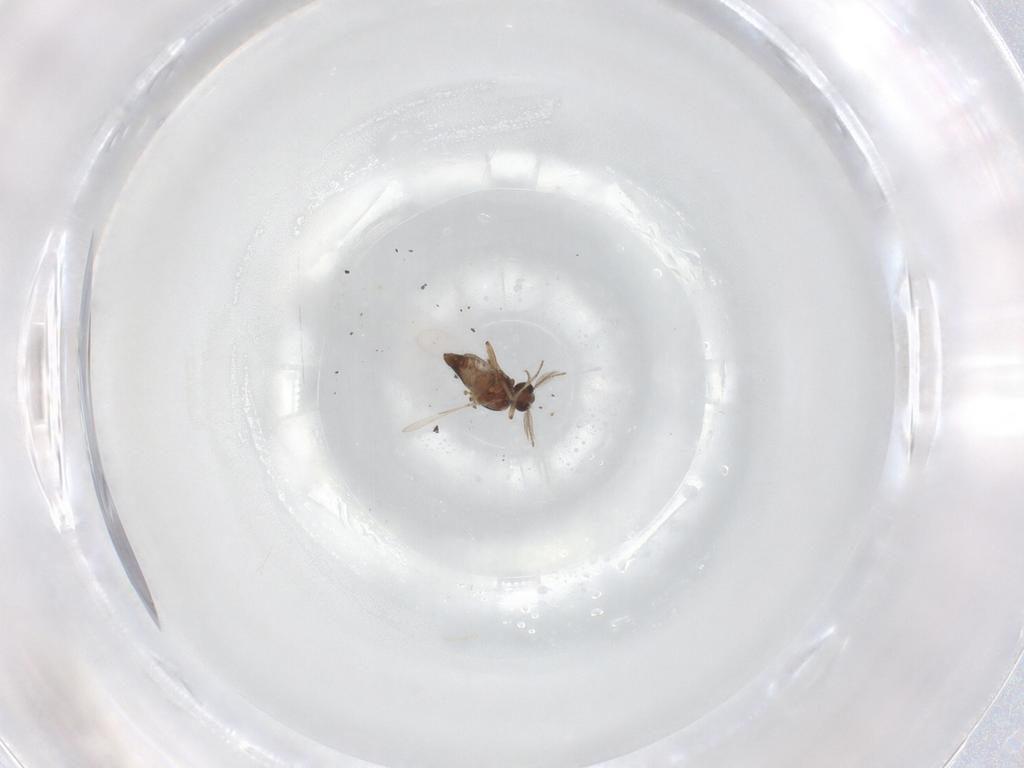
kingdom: Animalia
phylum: Arthropoda
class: Insecta
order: Diptera
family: Ceratopogonidae
